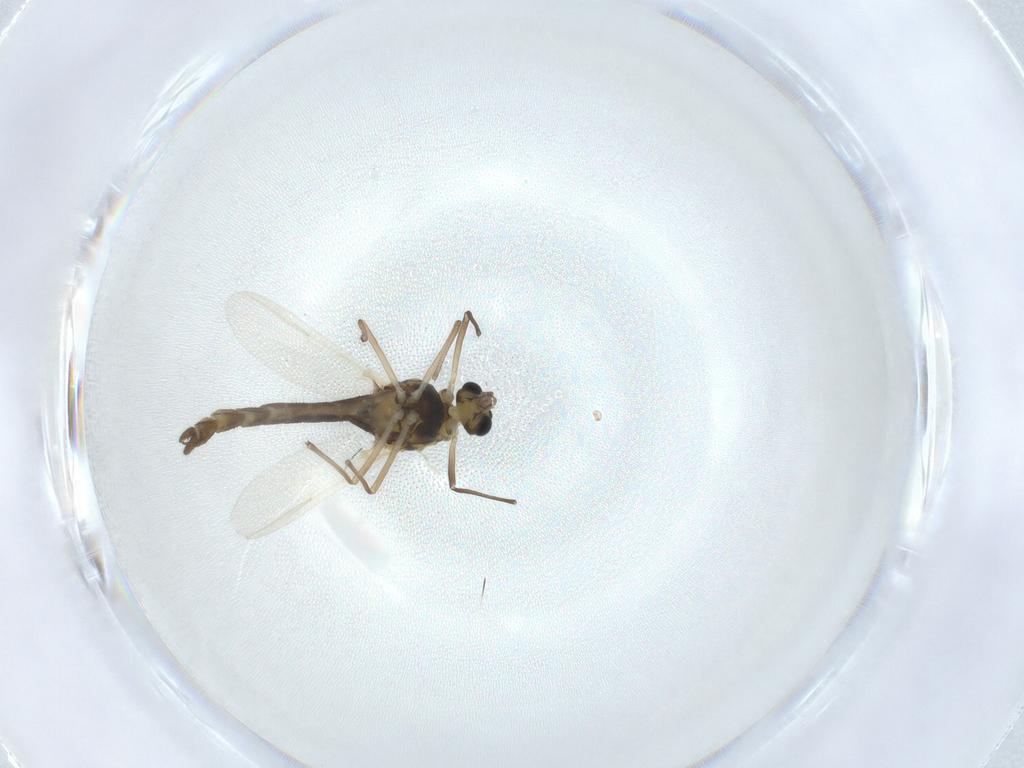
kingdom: Animalia
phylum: Arthropoda
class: Insecta
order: Diptera
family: Chironomidae
